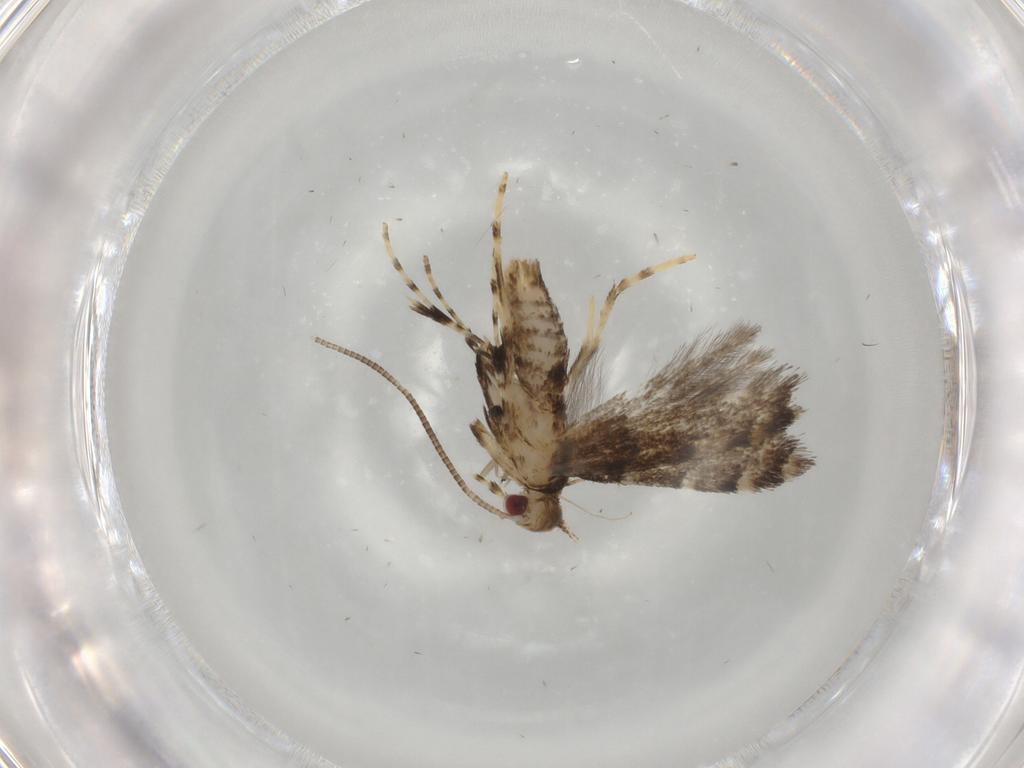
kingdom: Animalia
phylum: Arthropoda
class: Insecta
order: Lepidoptera
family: Gracillariidae
